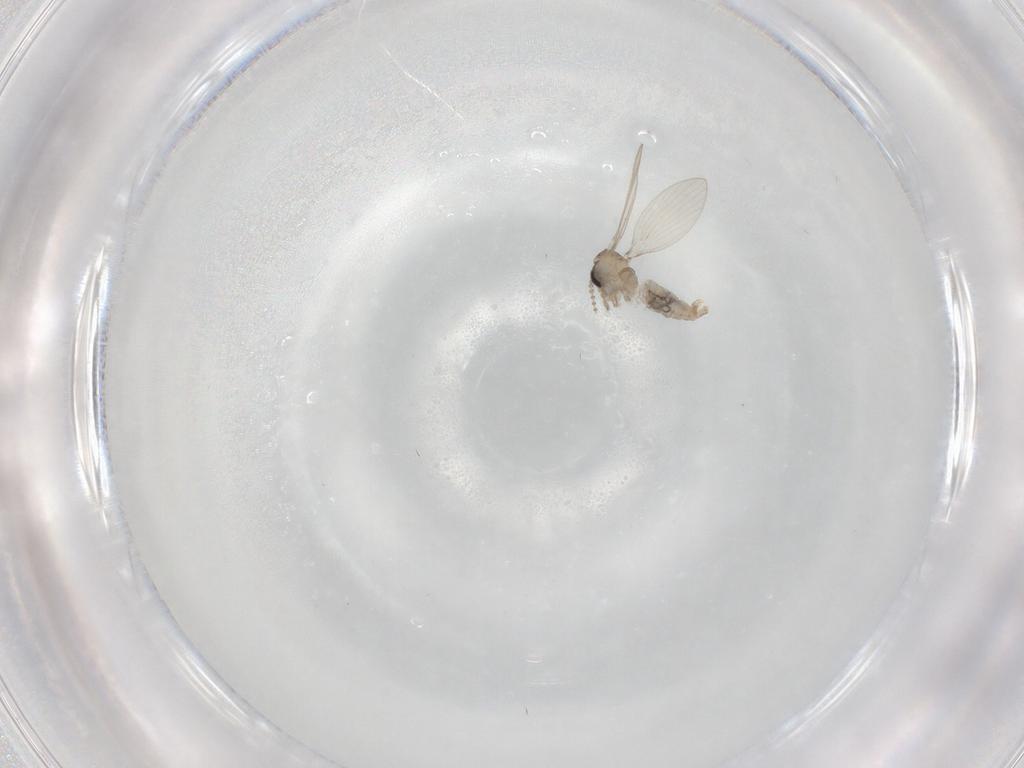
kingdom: Animalia
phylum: Arthropoda
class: Insecta
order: Diptera
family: Psychodidae
